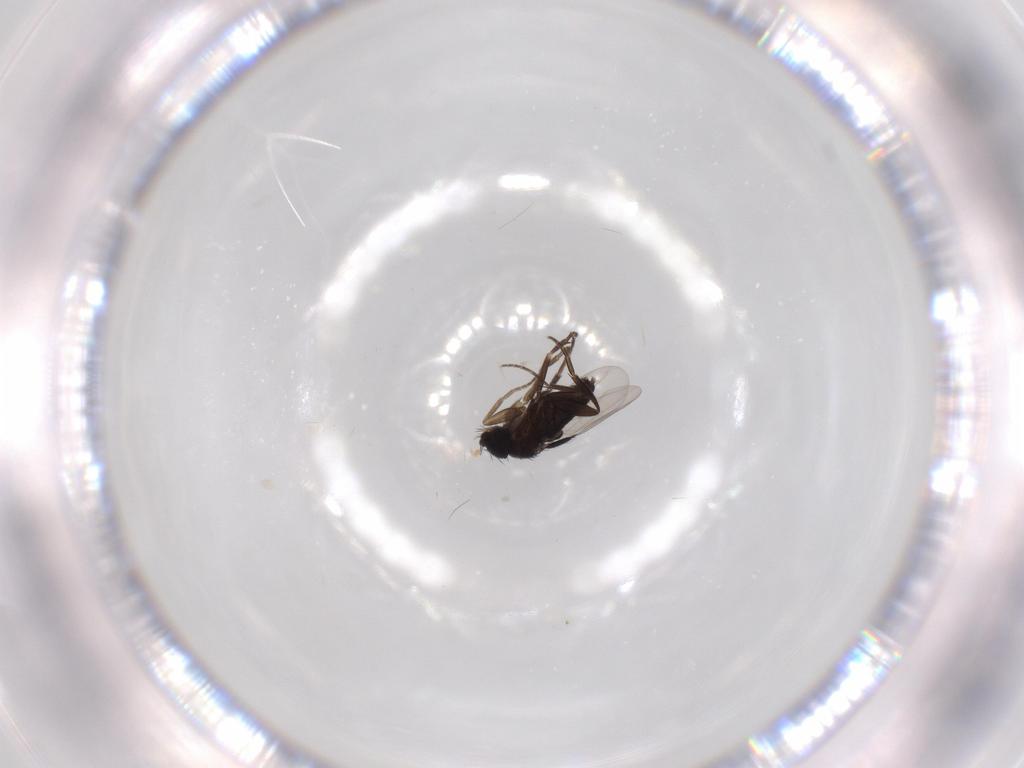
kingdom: Animalia
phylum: Arthropoda
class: Insecta
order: Diptera
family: Phoridae
